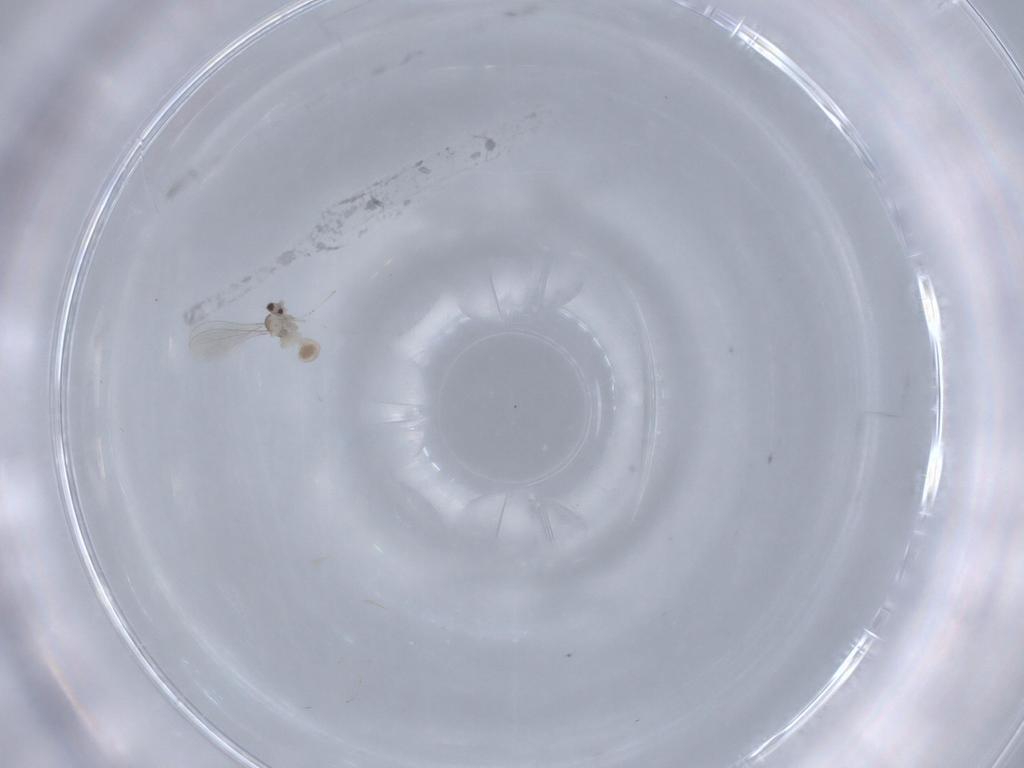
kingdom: Animalia
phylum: Arthropoda
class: Insecta
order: Diptera
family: Cecidomyiidae
